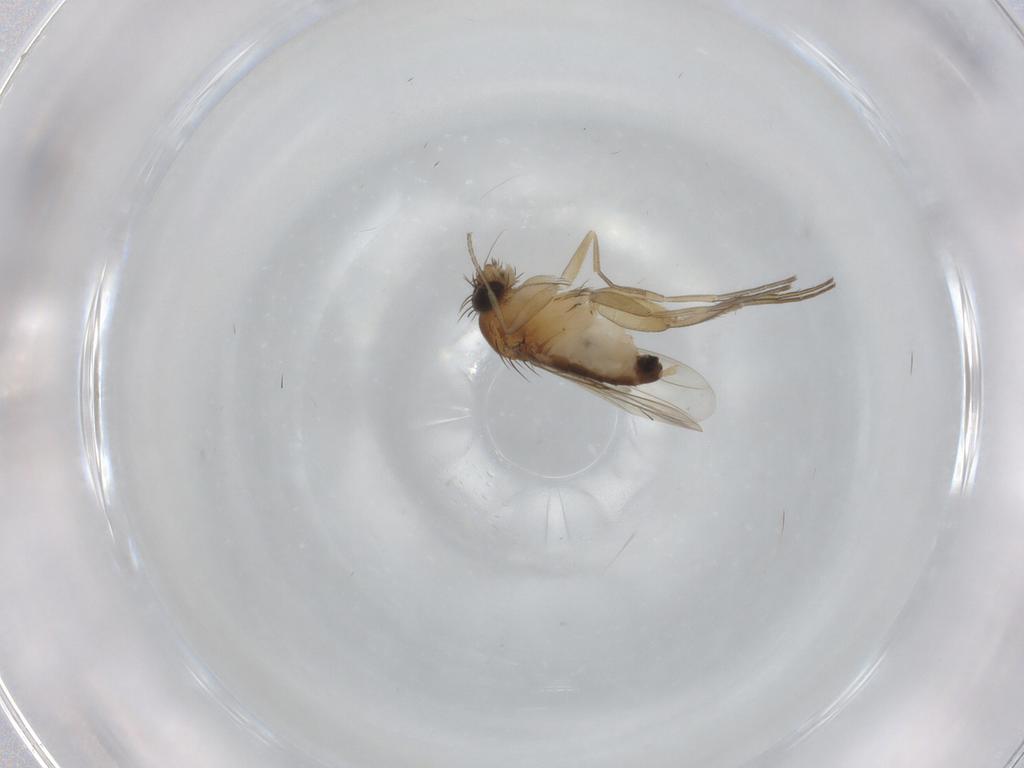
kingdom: Animalia
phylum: Arthropoda
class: Insecta
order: Diptera
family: Phoridae
